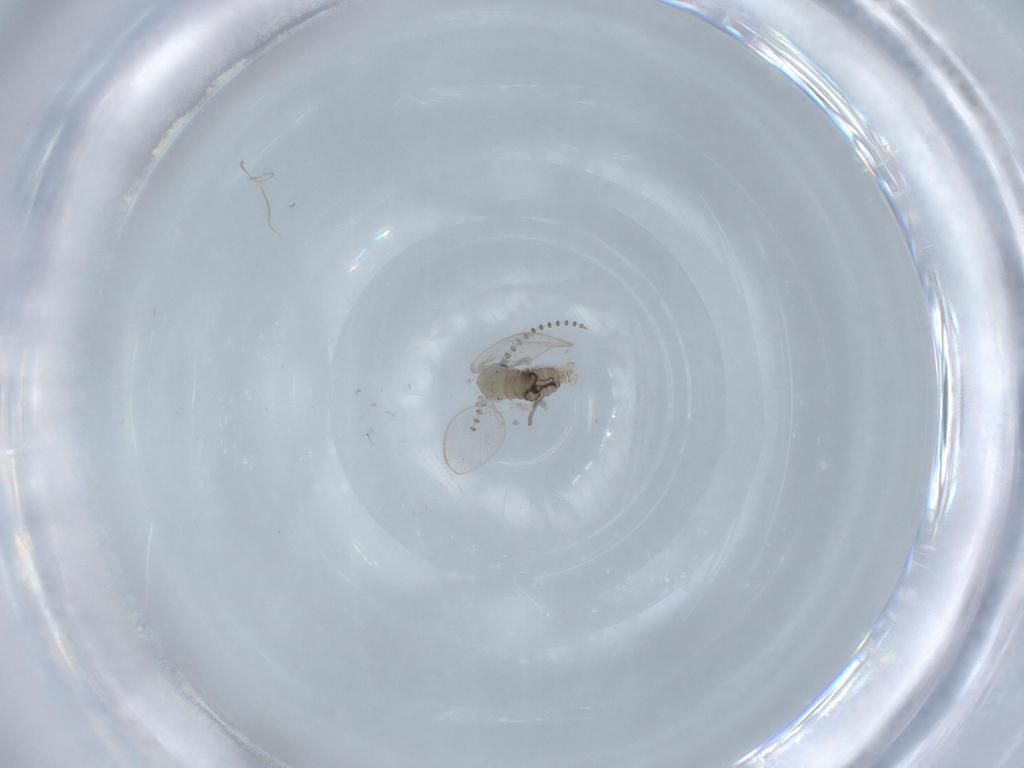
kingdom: Animalia
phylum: Arthropoda
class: Insecta
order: Diptera
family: Psychodidae
